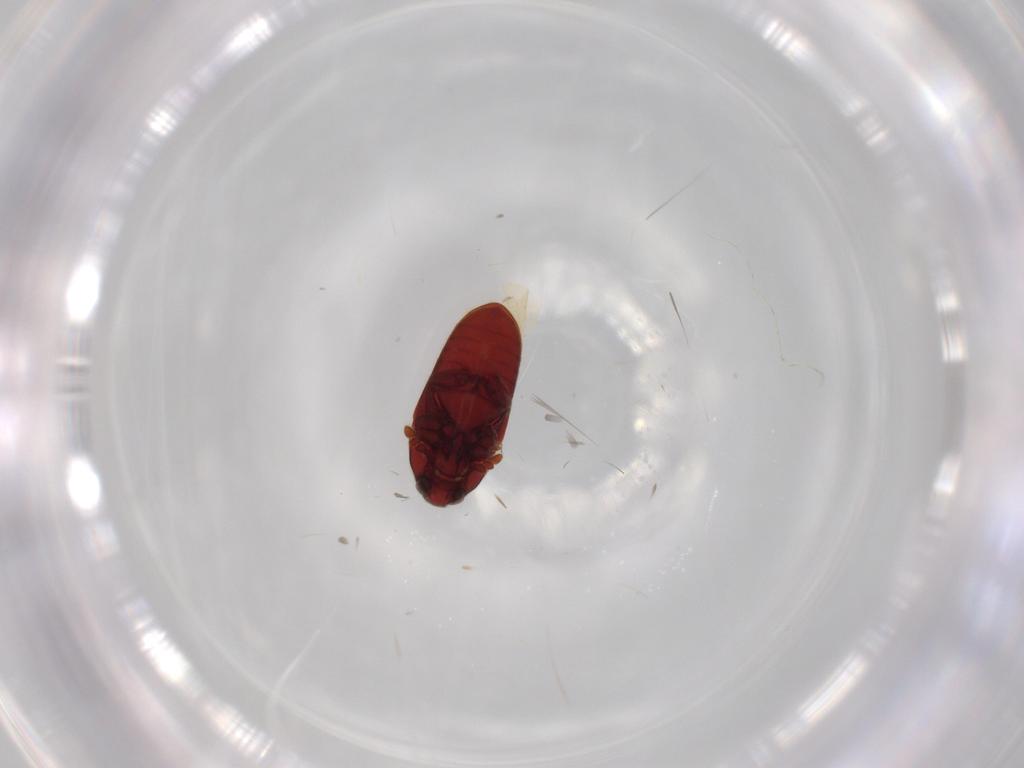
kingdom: Animalia
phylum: Arthropoda
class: Insecta
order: Coleoptera
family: Throscidae
